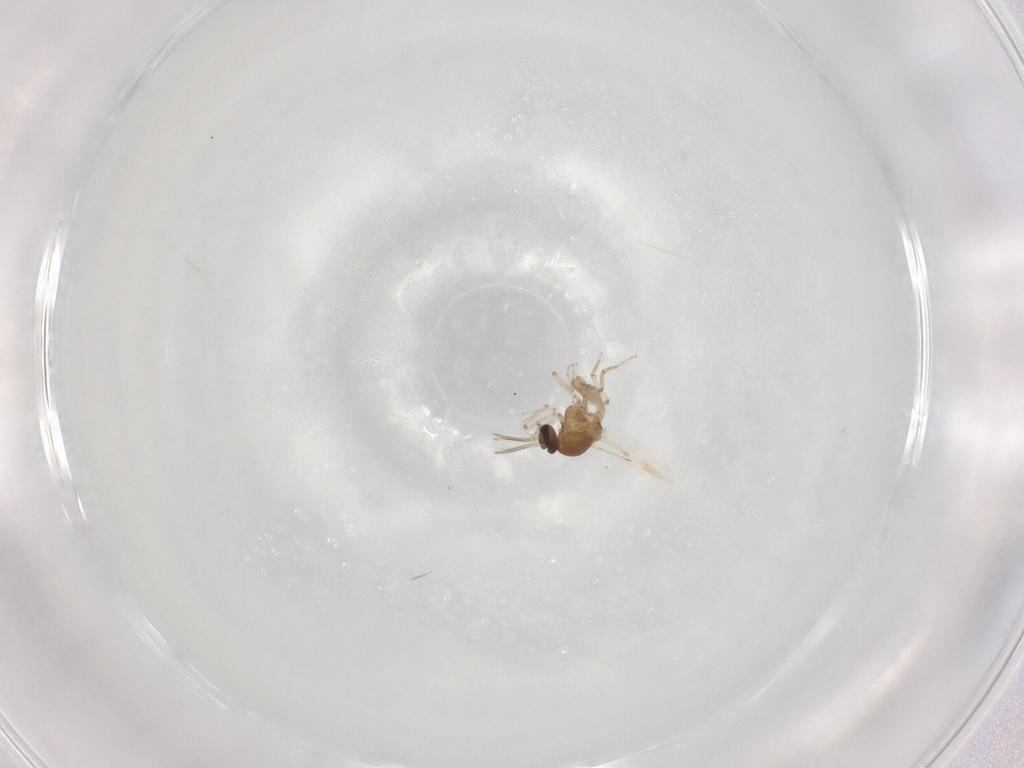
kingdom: Animalia
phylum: Arthropoda
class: Insecta
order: Diptera
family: Ceratopogonidae
